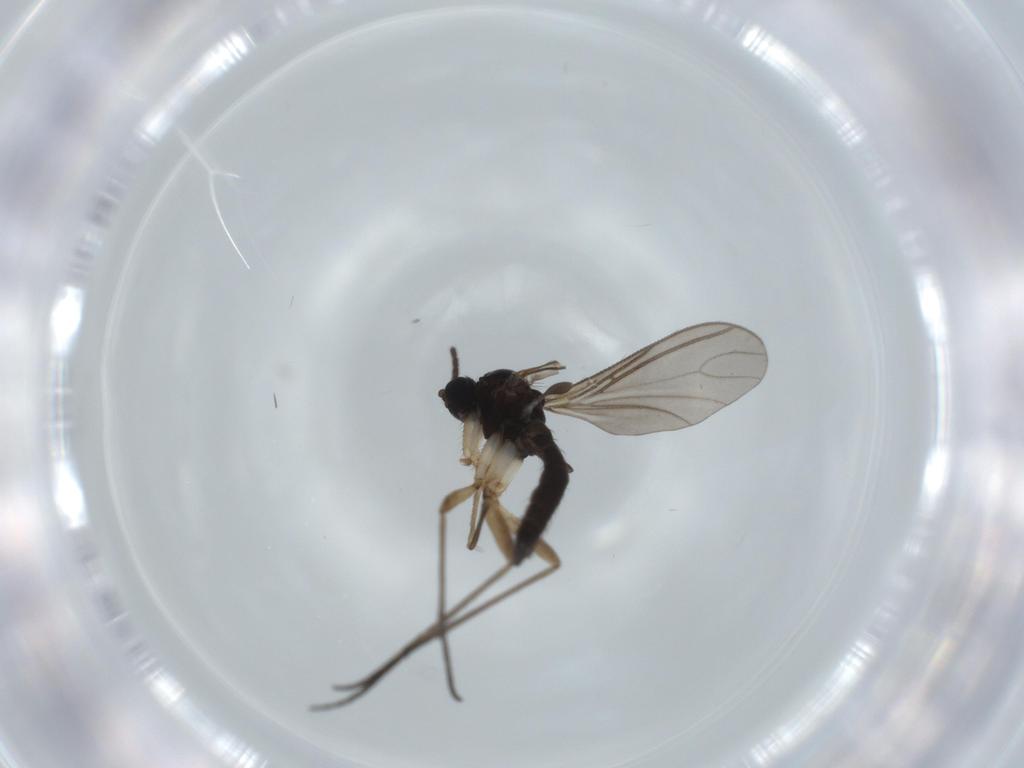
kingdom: Animalia
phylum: Arthropoda
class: Insecta
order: Diptera
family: Sciaridae
